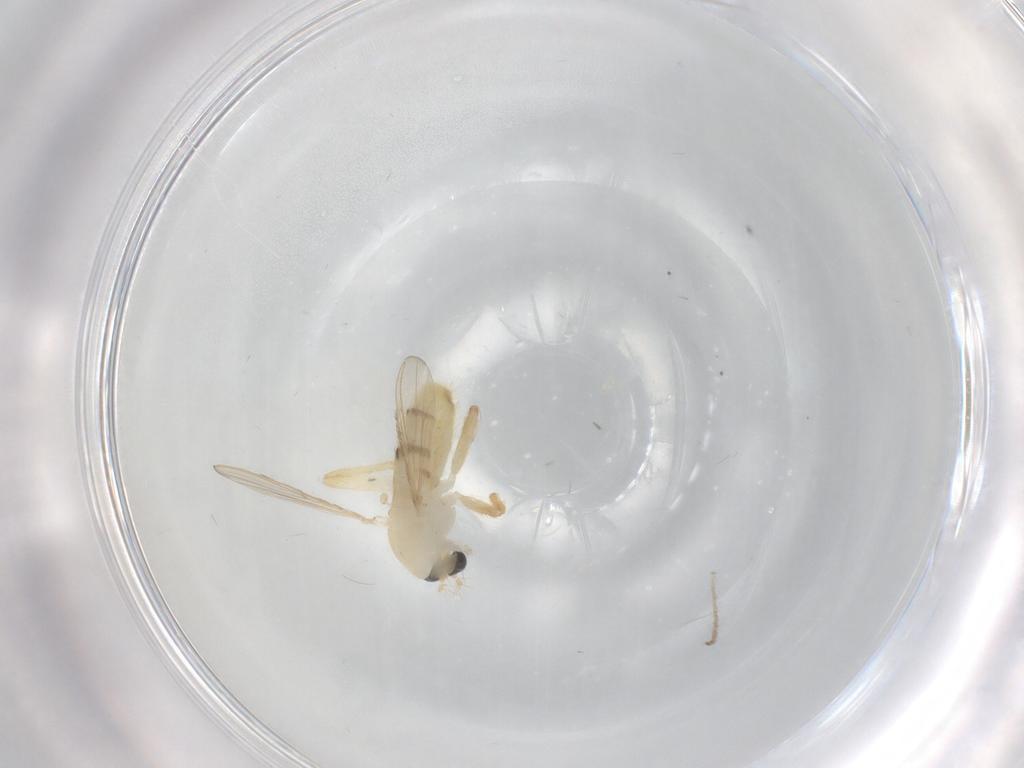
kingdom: Animalia
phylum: Arthropoda
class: Insecta
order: Diptera
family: Chironomidae
